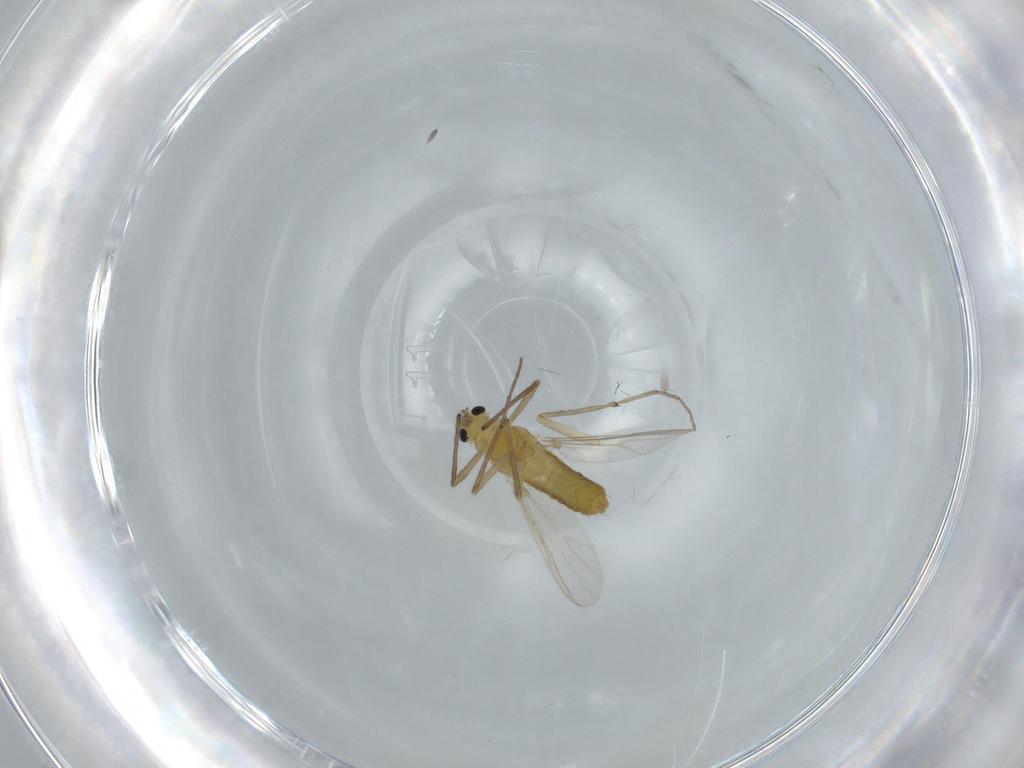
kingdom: Animalia
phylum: Arthropoda
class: Insecta
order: Diptera
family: Chironomidae
